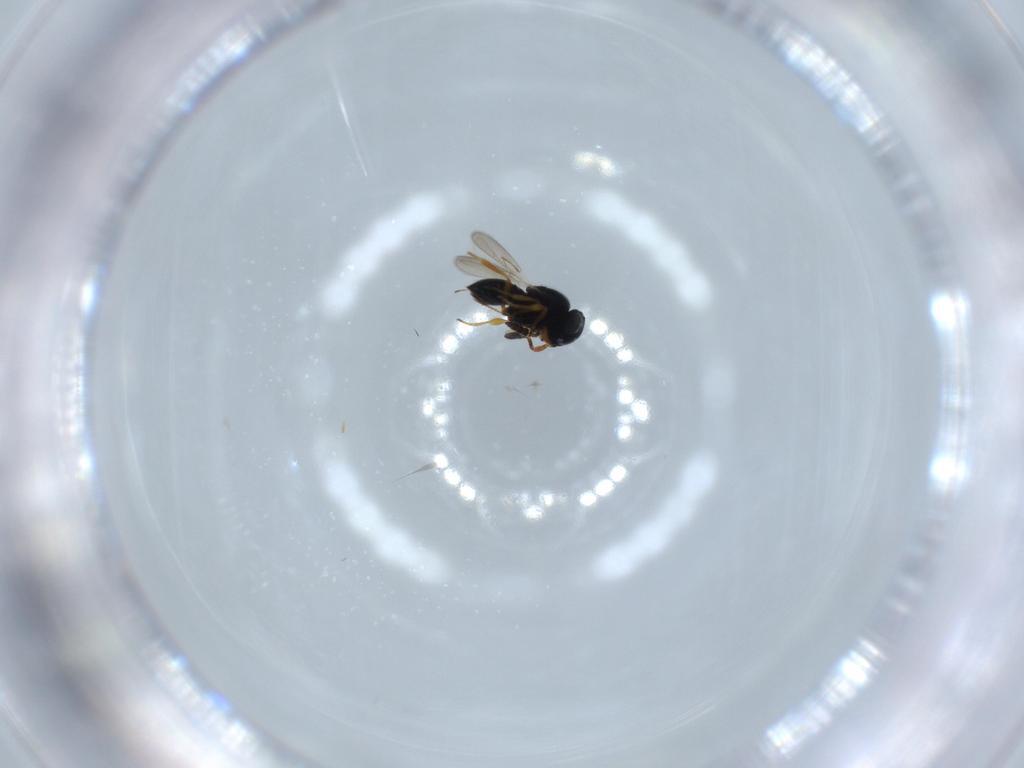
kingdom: Animalia
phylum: Arthropoda
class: Insecta
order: Hymenoptera
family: Scelionidae
